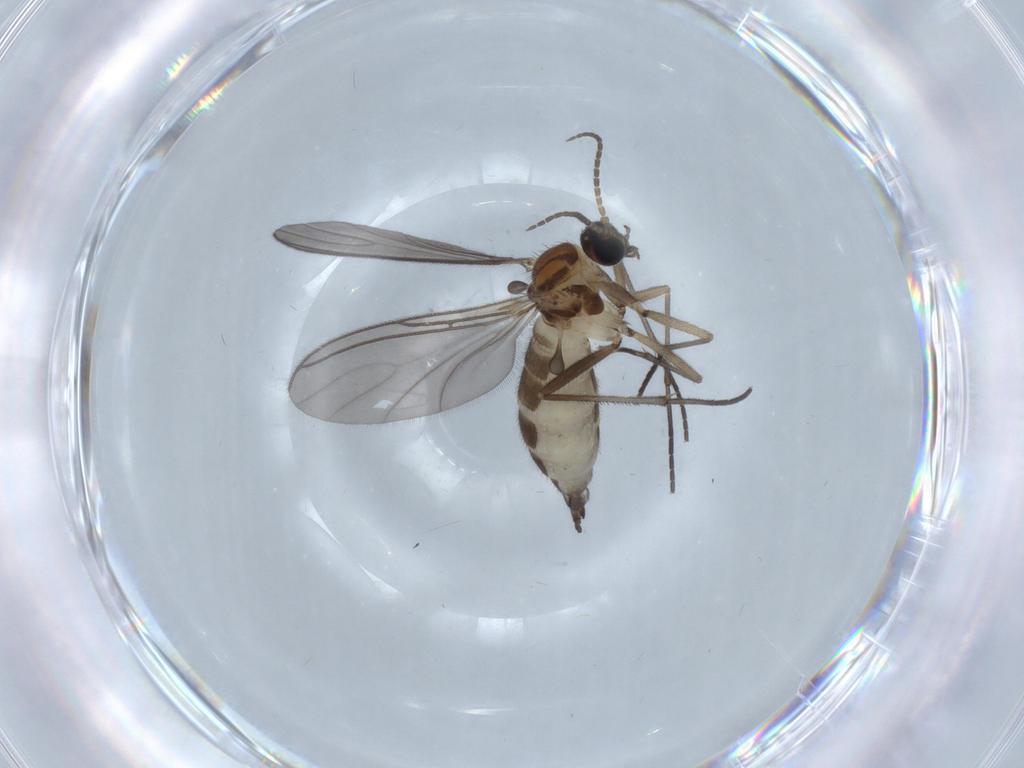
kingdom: Animalia
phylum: Arthropoda
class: Insecta
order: Diptera
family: Sciaridae
